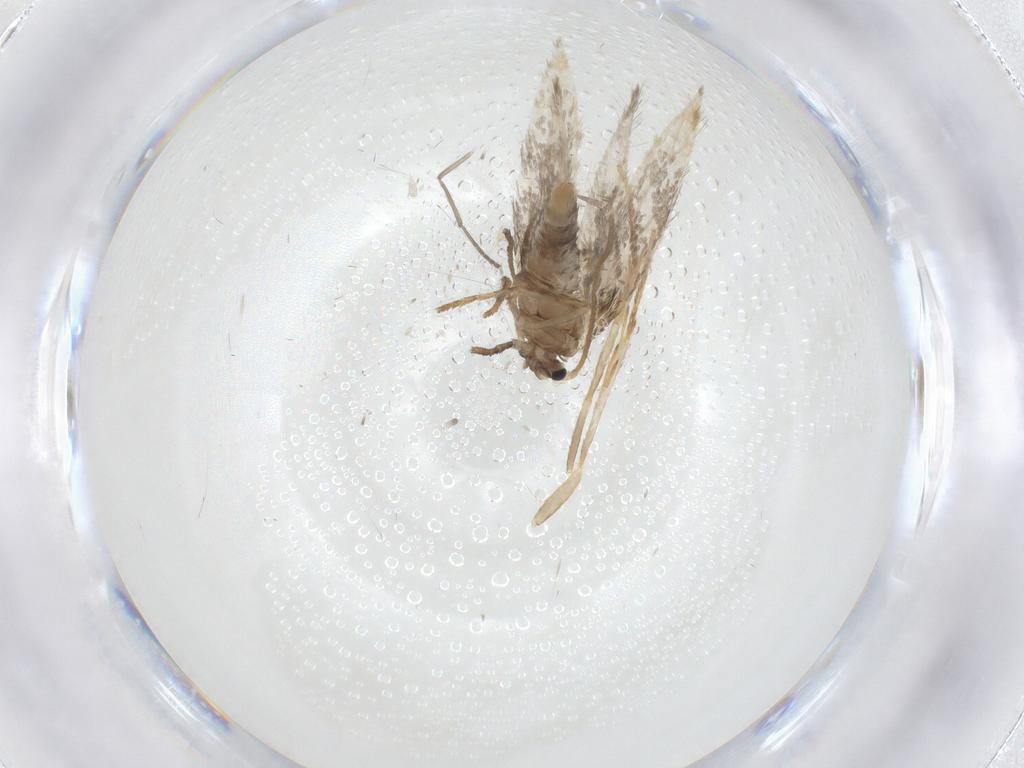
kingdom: Animalia
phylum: Arthropoda
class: Insecta
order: Lepidoptera
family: Nepticulidae
